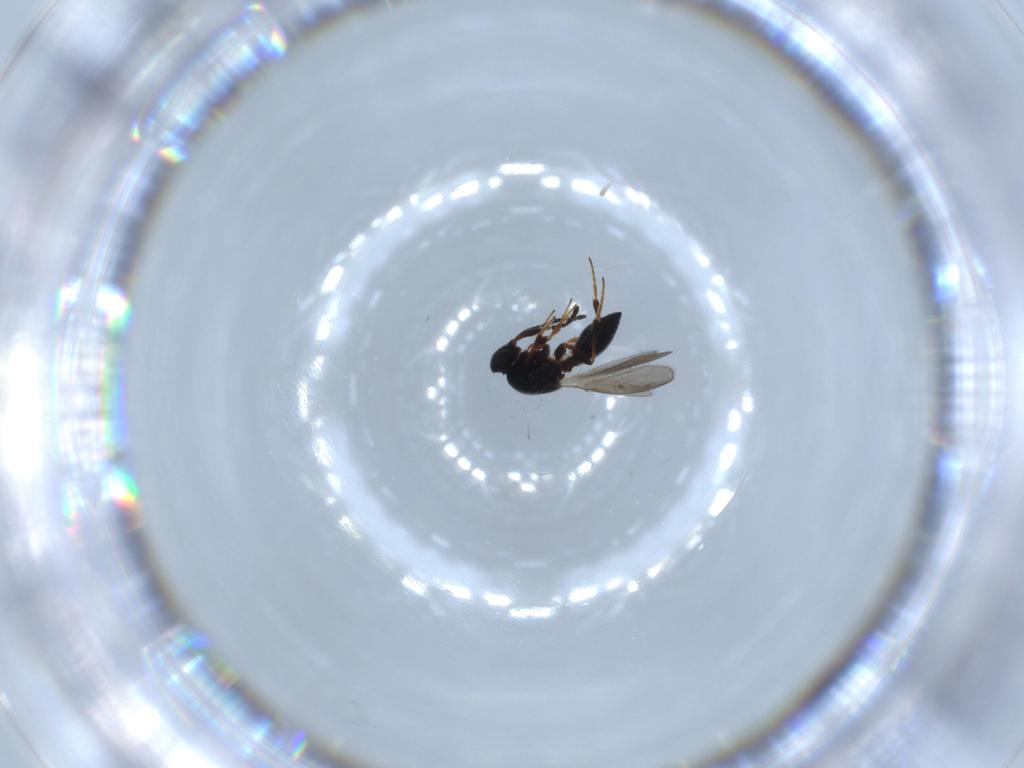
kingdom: Animalia
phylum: Arthropoda
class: Insecta
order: Hymenoptera
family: Platygastridae
